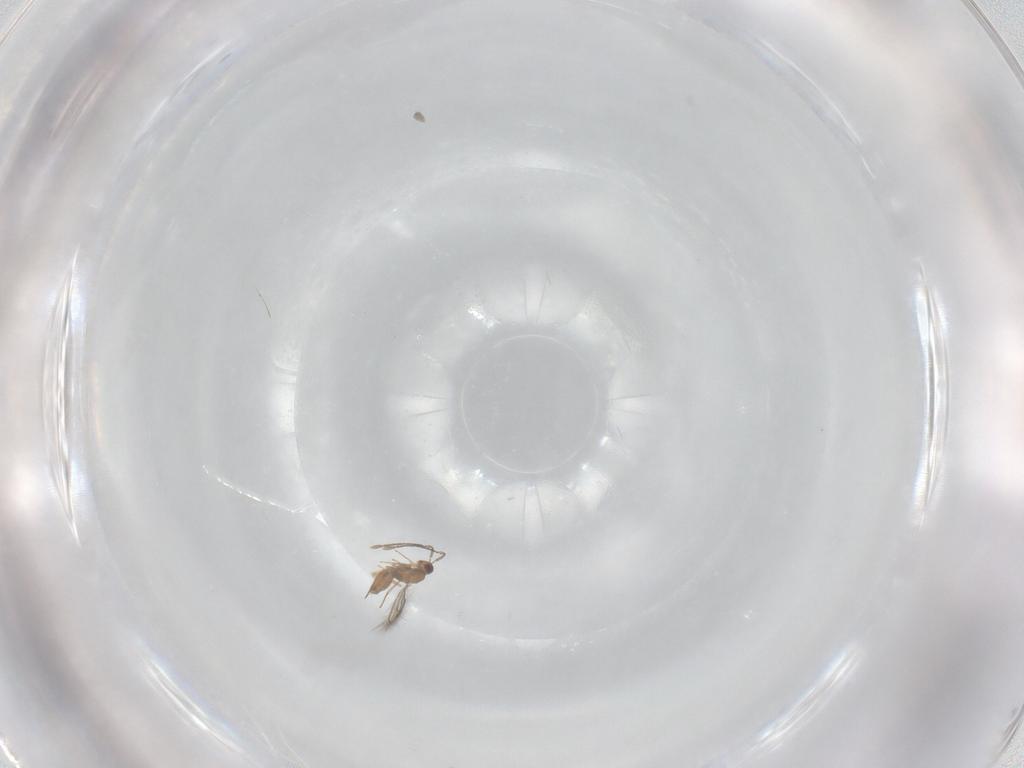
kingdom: Animalia
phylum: Arthropoda
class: Insecta
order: Hymenoptera
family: Mymaridae
